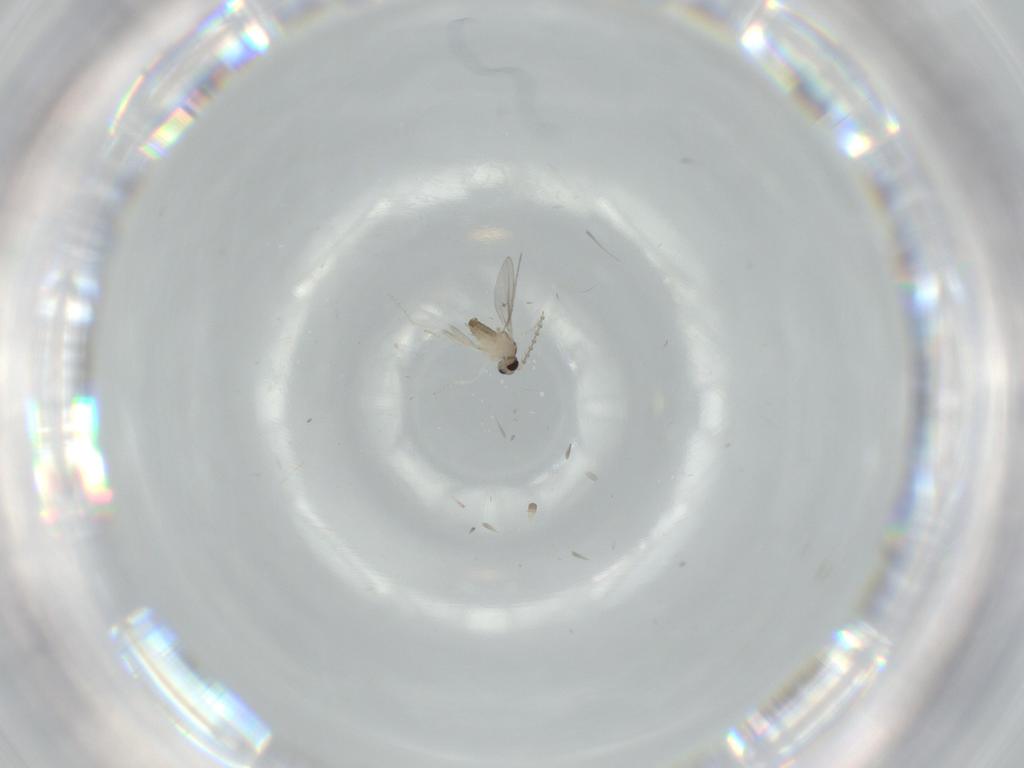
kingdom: Animalia
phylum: Arthropoda
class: Insecta
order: Diptera
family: Cecidomyiidae
